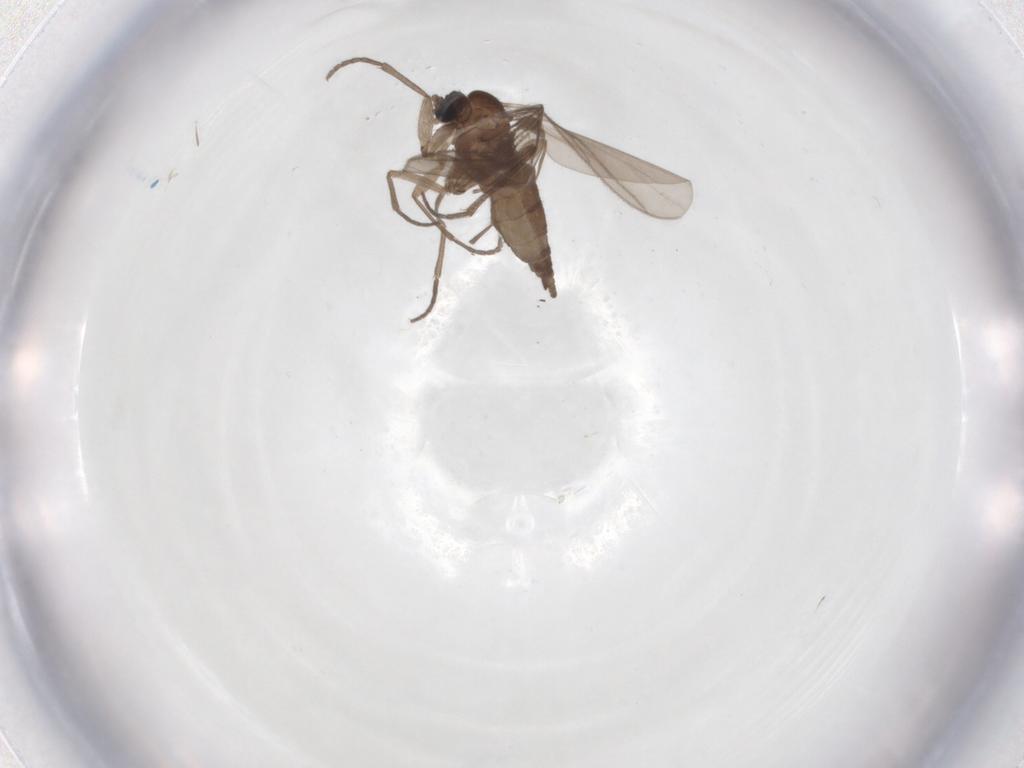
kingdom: Animalia
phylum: Arthropoda
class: Insecta
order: Diptera
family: Sciaridae
